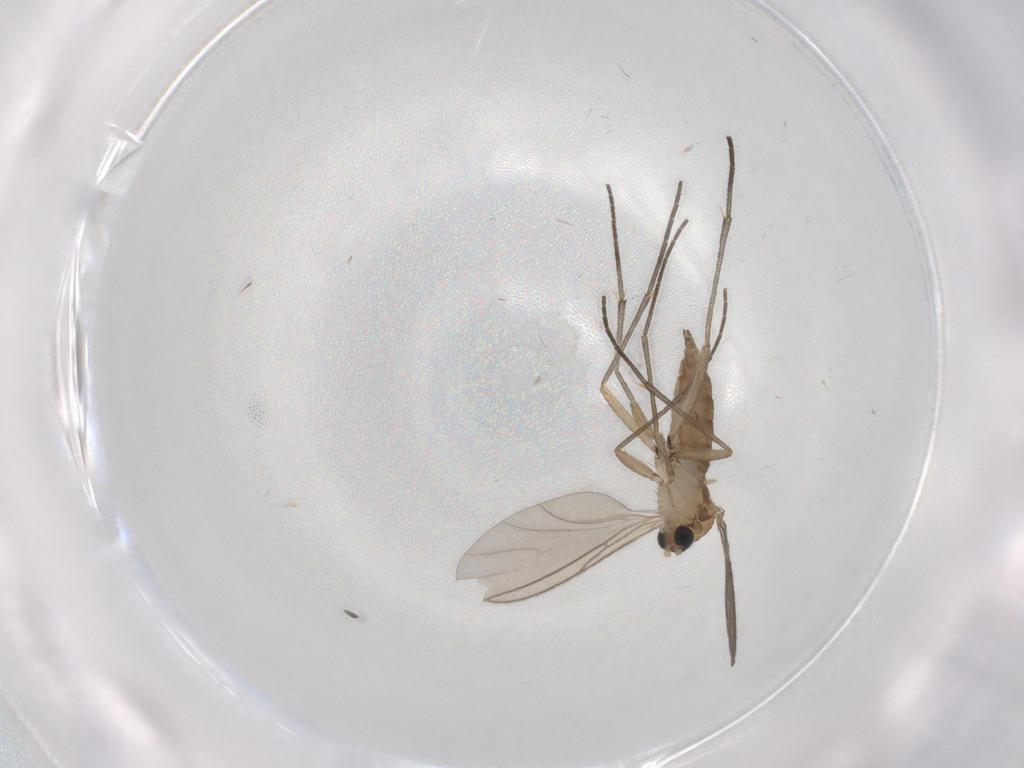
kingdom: Animalia
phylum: Arthropoda
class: Insecta
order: Diptera
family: Sciaridae
